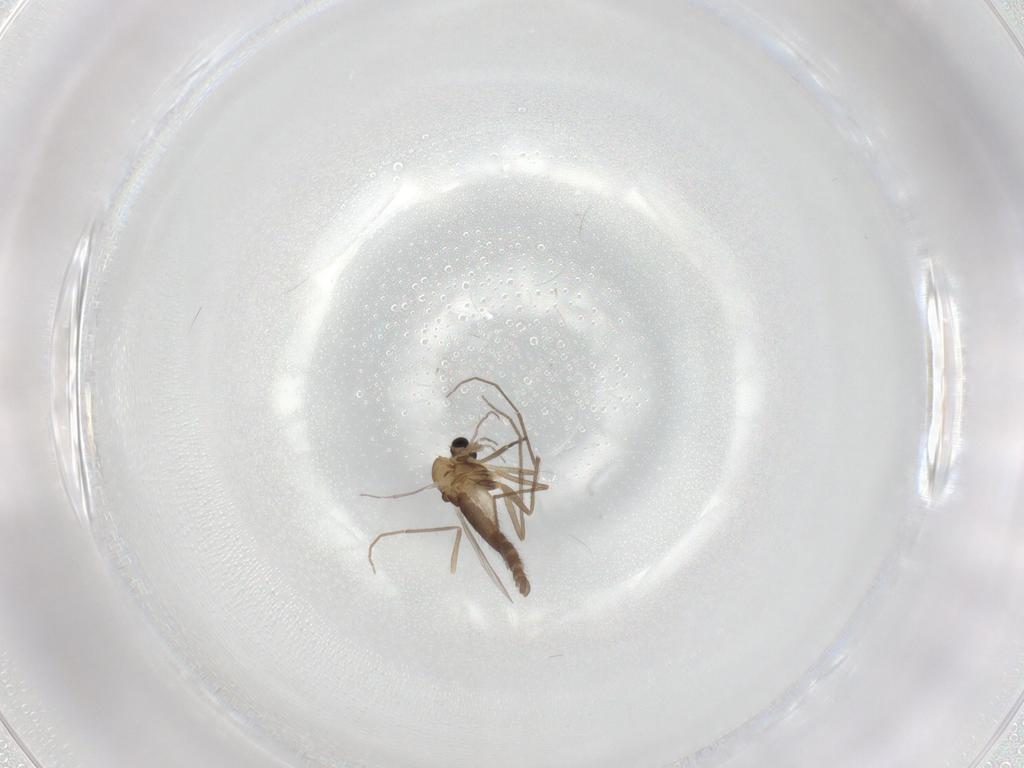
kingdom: Animalia
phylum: Arthropoda
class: Insecta
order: Diptera
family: Chironomidae
